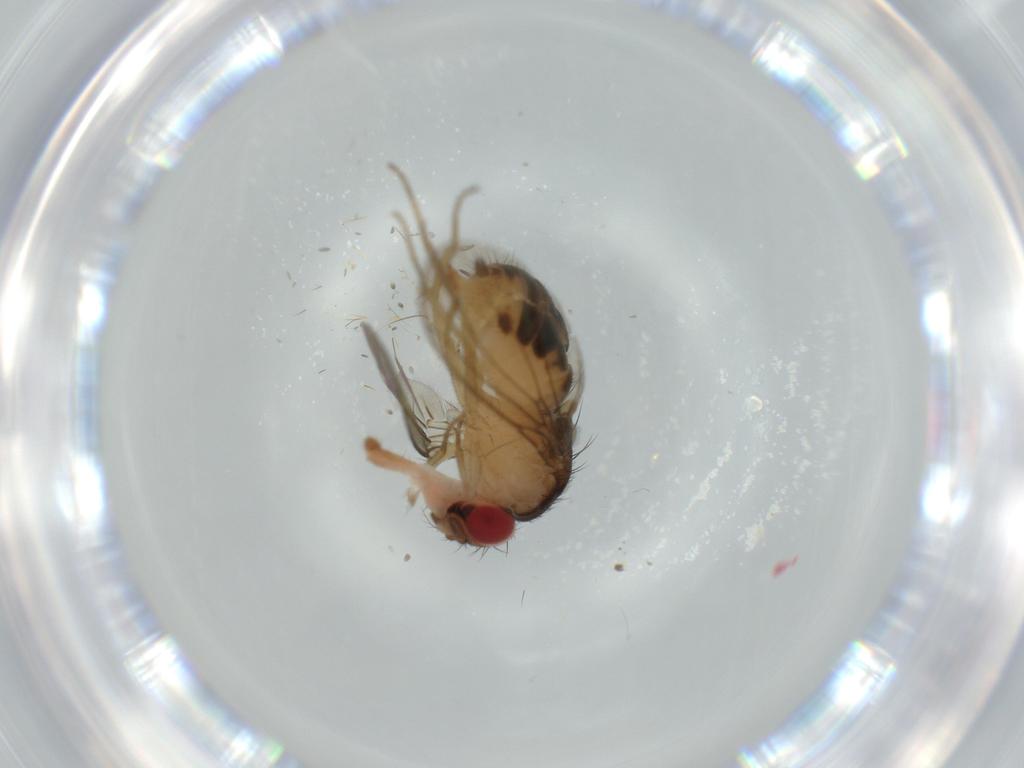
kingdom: Animalia
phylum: Arthropoda
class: Insecta
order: Diptera
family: Drosophilidae
